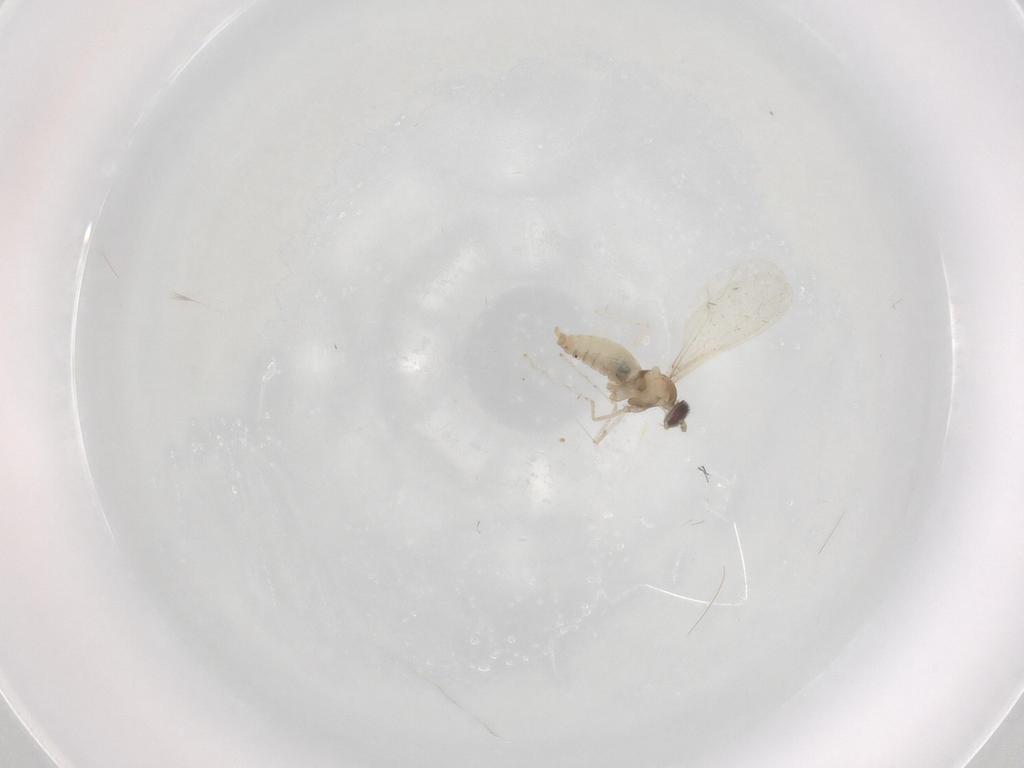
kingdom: Animalia
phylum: Arthropoda
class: Insecta
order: Diptera
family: Cecidomyiidae
